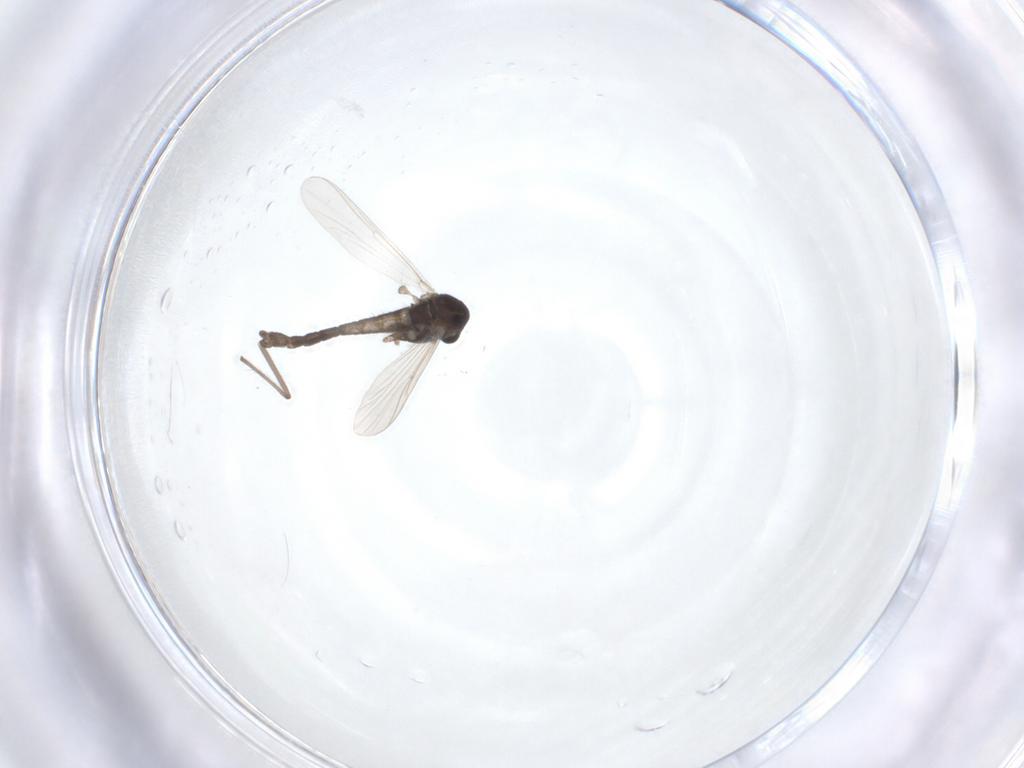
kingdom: Animalia
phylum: Arthropoda
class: Insecta
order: Diptera
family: Chironomidae
